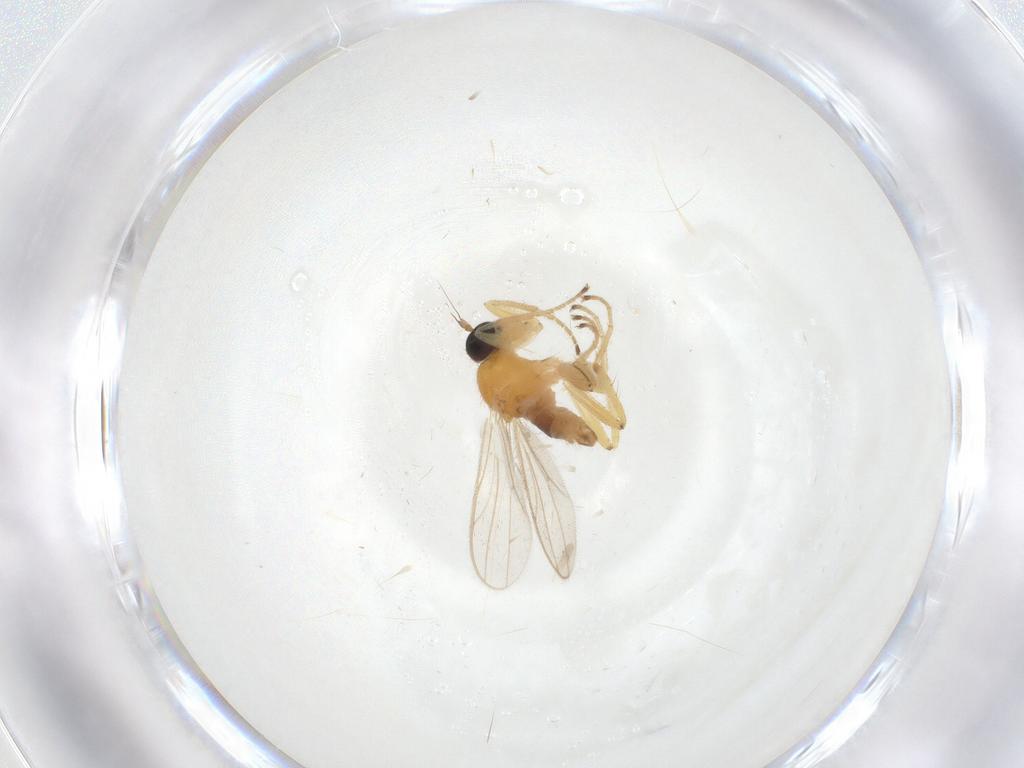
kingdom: Animalia
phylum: Arthropoda
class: Insecta
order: Diptera
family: Hybotidae
